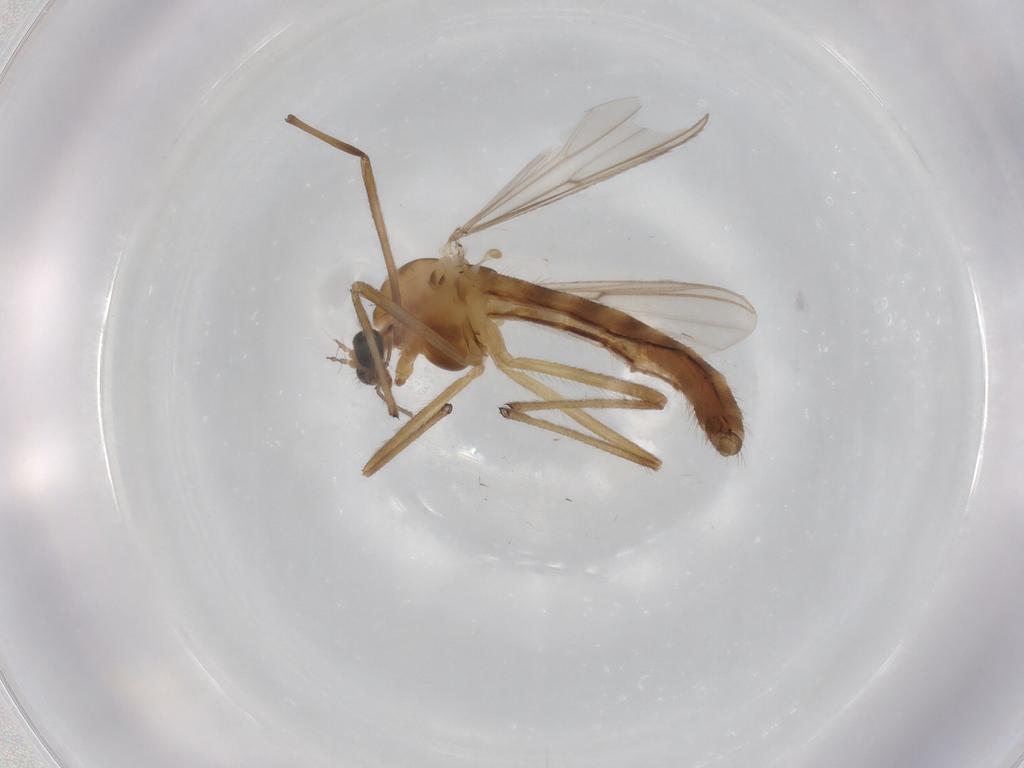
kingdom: Animalia
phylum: Arthropoda
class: Insecta
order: Diptera
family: Chironomidae
